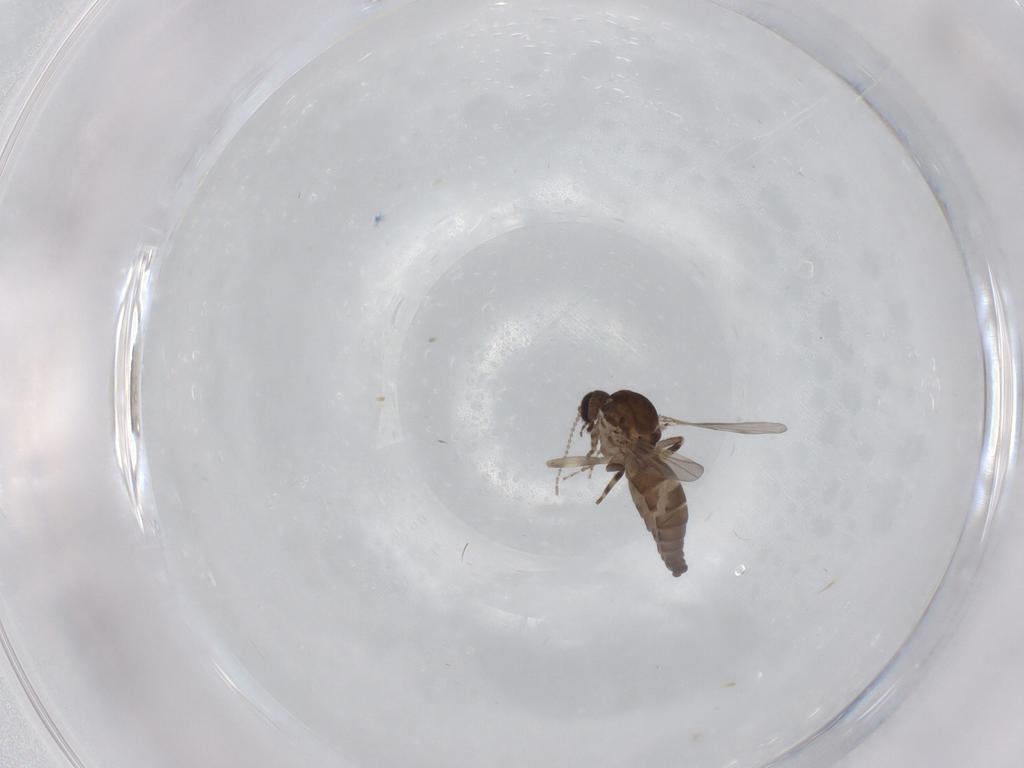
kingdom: Animalia
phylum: Arthropoda
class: Insecta
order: Diptera
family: Ceratopogonidae
